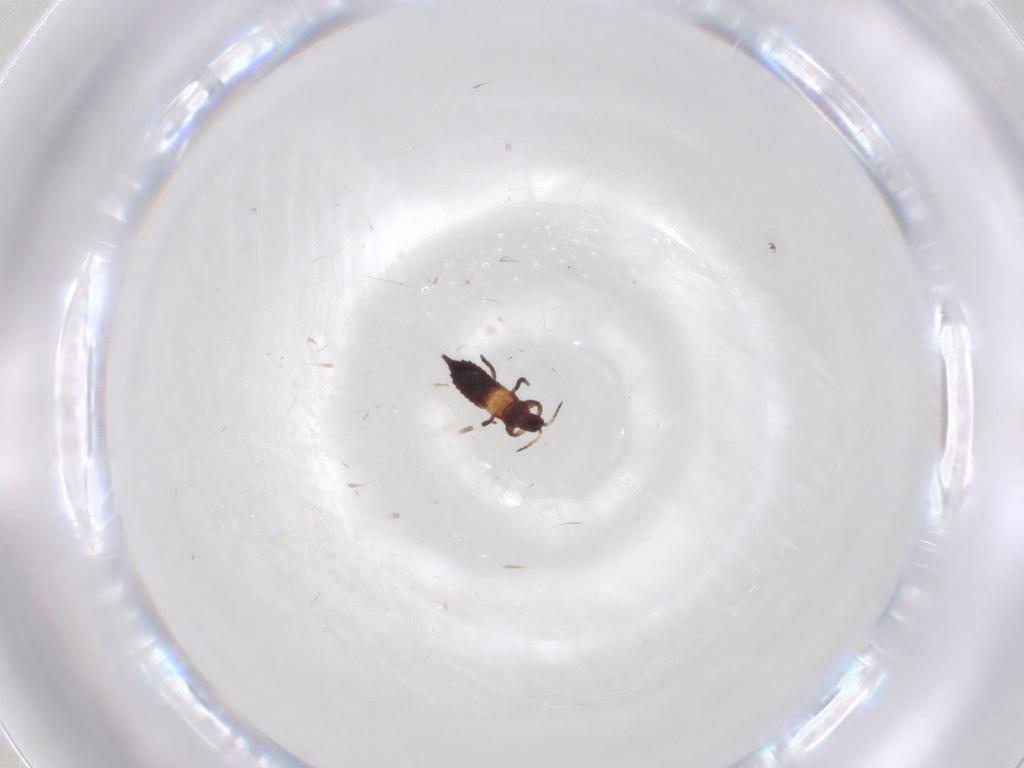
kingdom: Animalia
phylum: Arthropoda
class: Insecta
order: Thysanoptera
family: Phlaeothripidae
